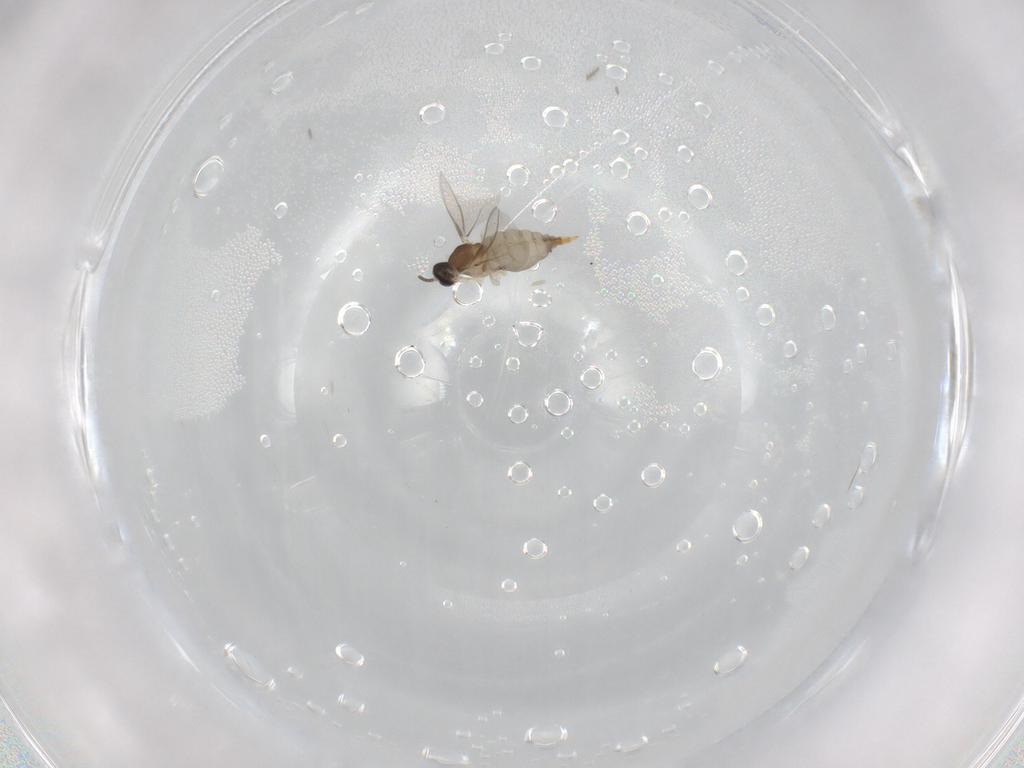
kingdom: Animalia
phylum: Arthropoda
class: Insecta
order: Diptera
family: Cecidomyiidae
